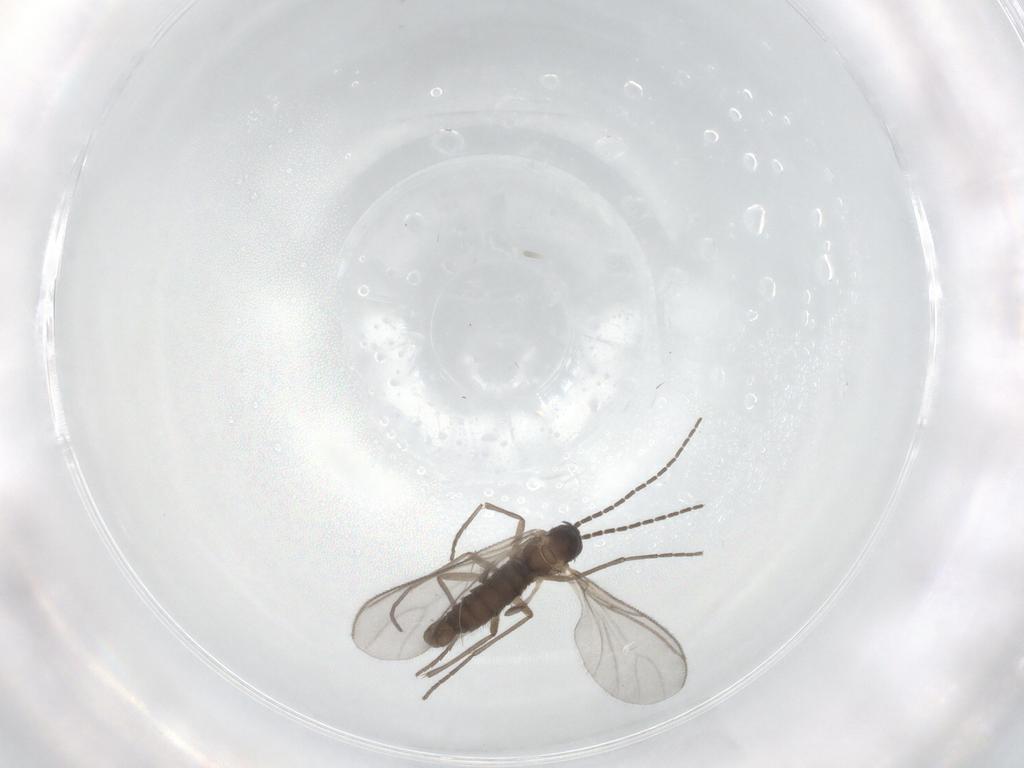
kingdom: Animalia
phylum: Arthropoda
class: Insecta
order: Diptera
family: Sciaridae
